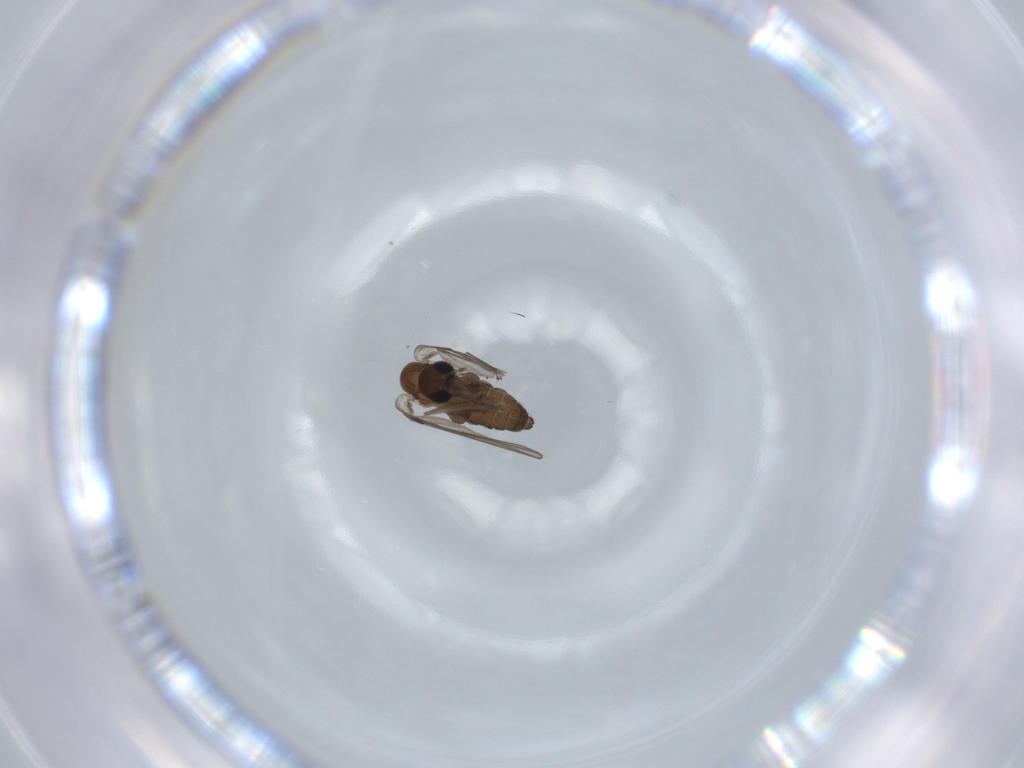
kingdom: Animalia
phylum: Arthropoda
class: Insecta
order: Diptera
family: Psychodidae
